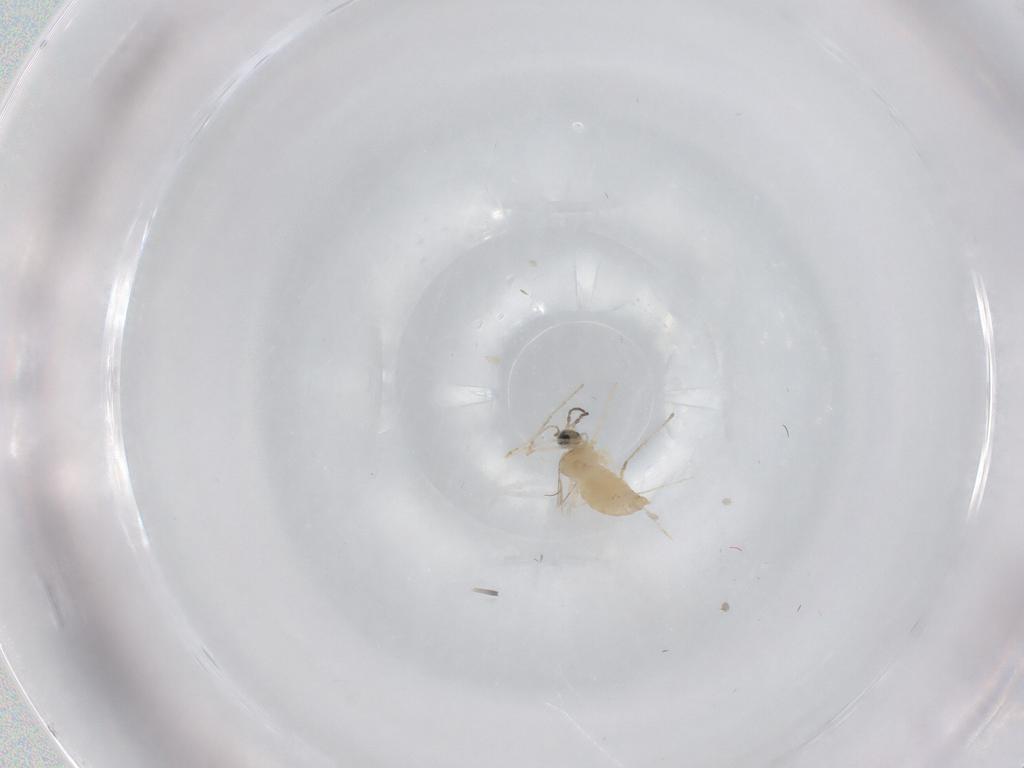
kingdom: Animalia
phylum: Arthropoda
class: Insecta
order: Diptera
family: Cecidomyiidae
